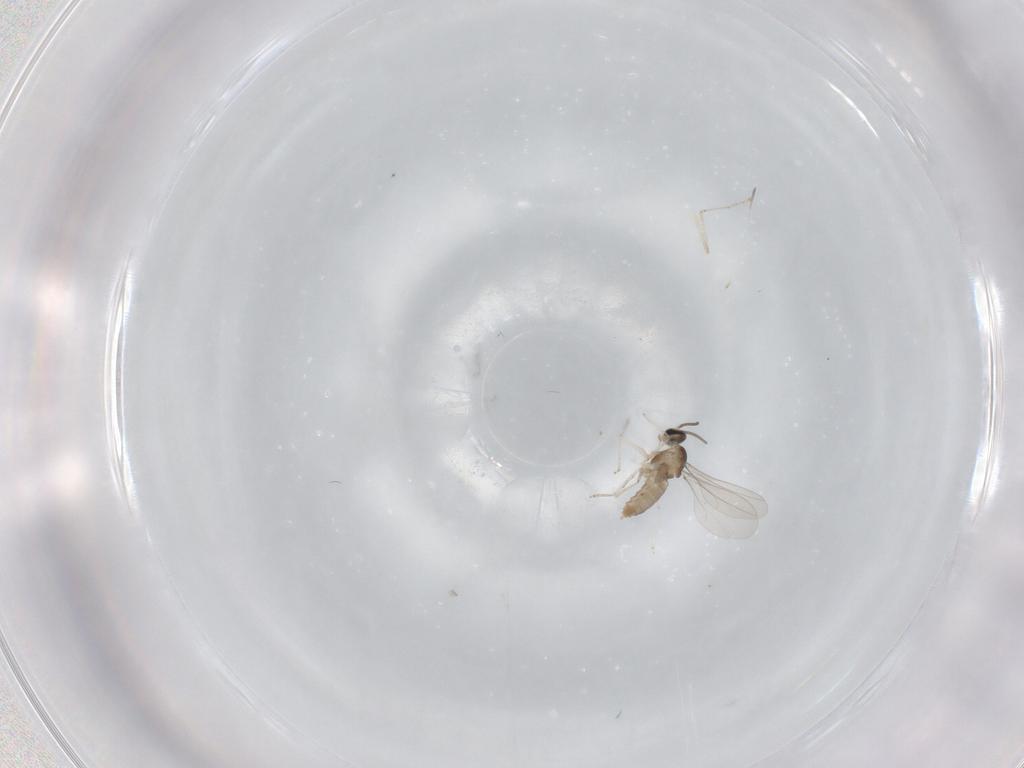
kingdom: Animalia
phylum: Arthropoda
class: Insecta
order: Diptera
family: Cecidomyiidae
